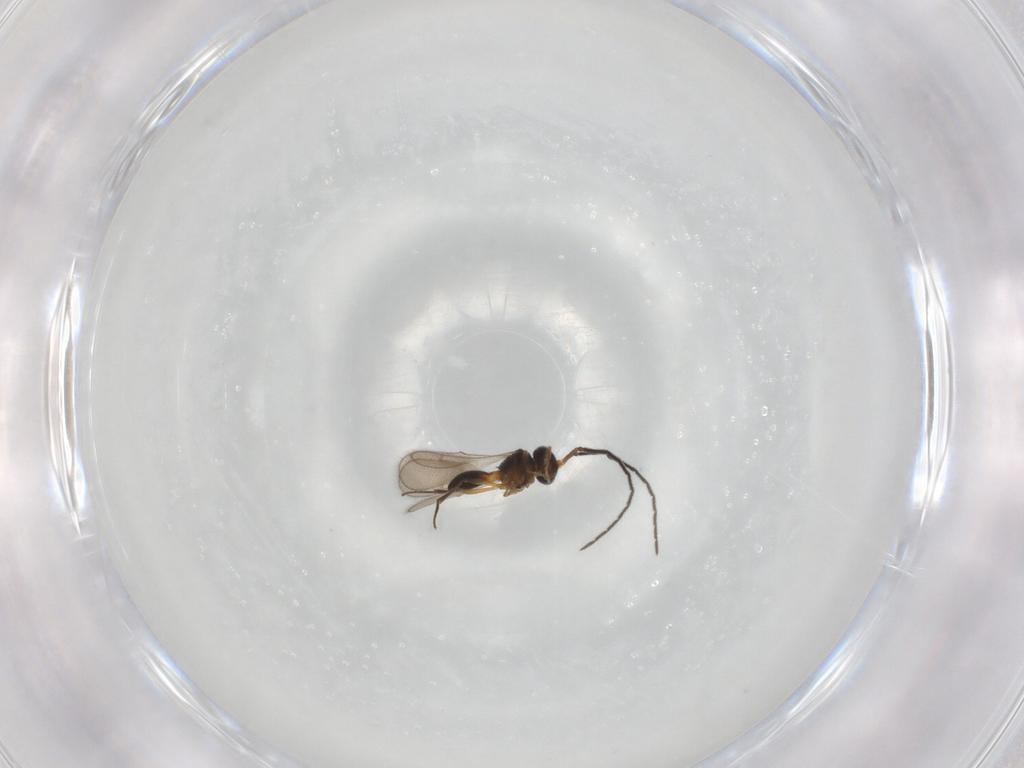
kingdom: Animalia
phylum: Arthropoda
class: Insecta
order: Hymenoptera
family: Scelionidae
